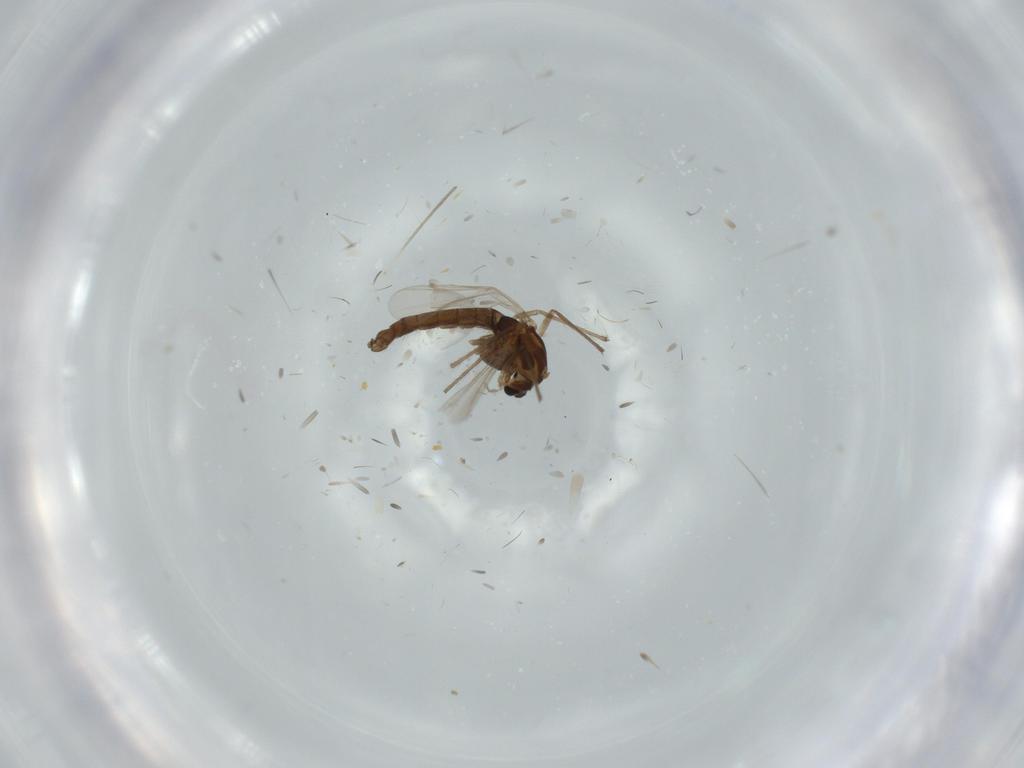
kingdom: Animalia
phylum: Arthropoda
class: Insecta
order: Diptera
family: Cecidomyiidae
